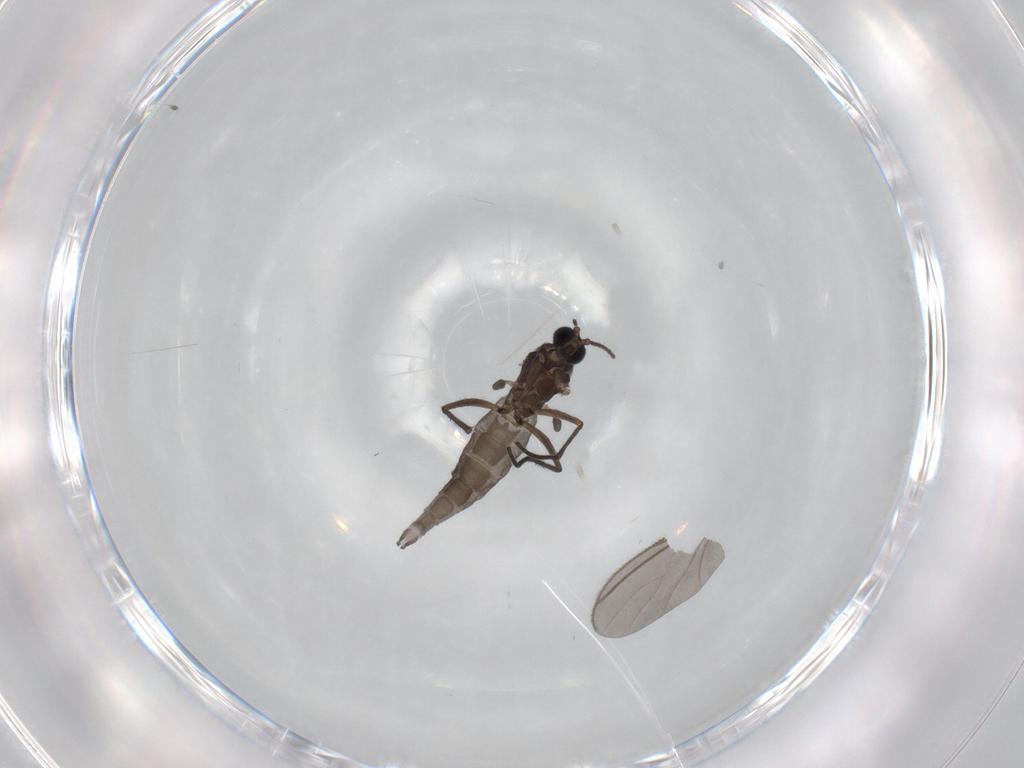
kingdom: Animalia
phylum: Arthropoda
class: Insecta
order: Diptera
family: Sciaridae
